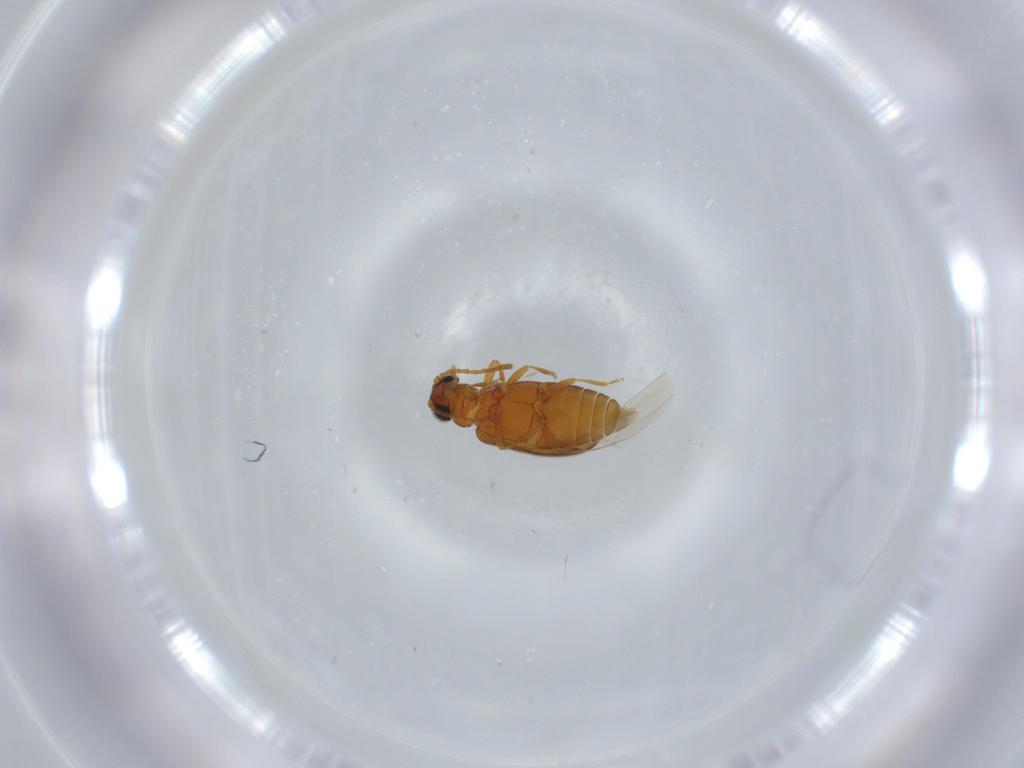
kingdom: Animalia
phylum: Arthropoda
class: Insecta
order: Coleoptera
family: Aderidae
